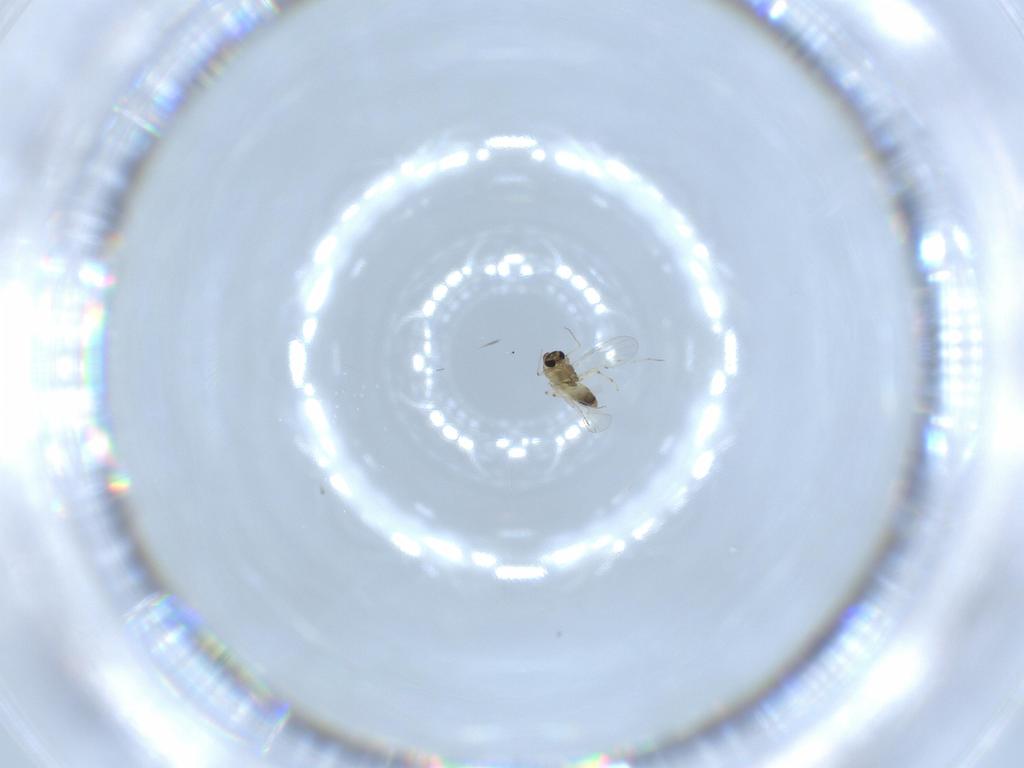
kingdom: Animalia
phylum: Arthropoda
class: Insecta
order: Diptera
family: Chironomidae
